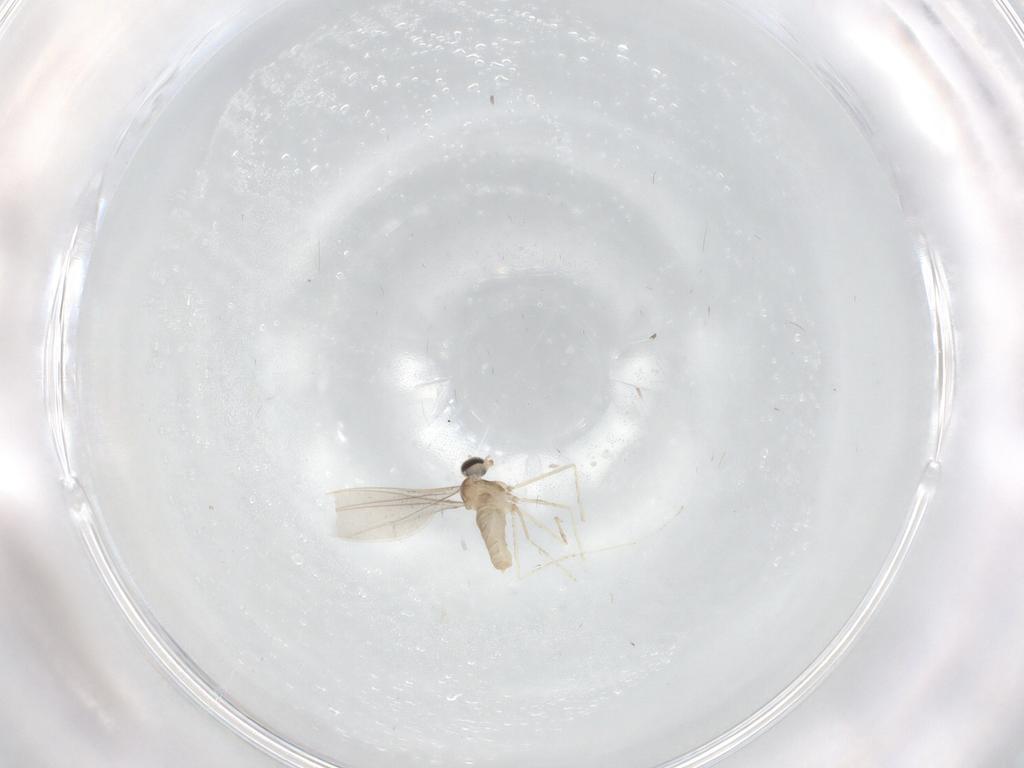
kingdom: Animalia
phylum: Arthropoda
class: Insecta
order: Diptera
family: Cecidomyiidae
